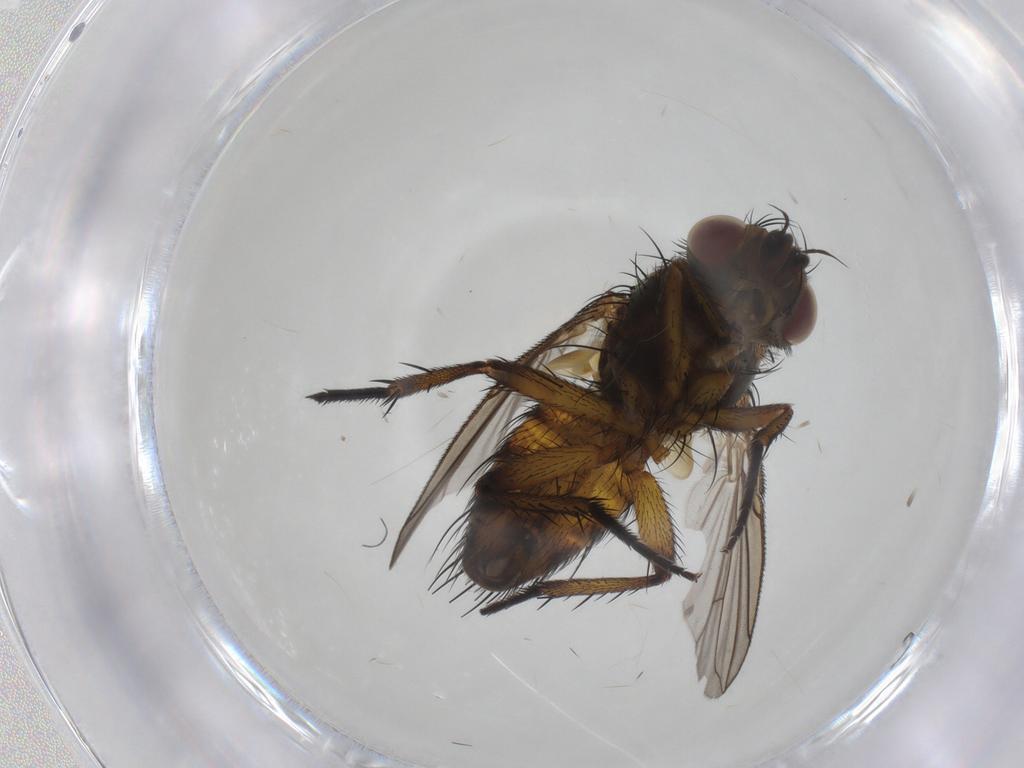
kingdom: Animalia
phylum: Arthropoda
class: Insecta
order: Diptera
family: Tachinidae
